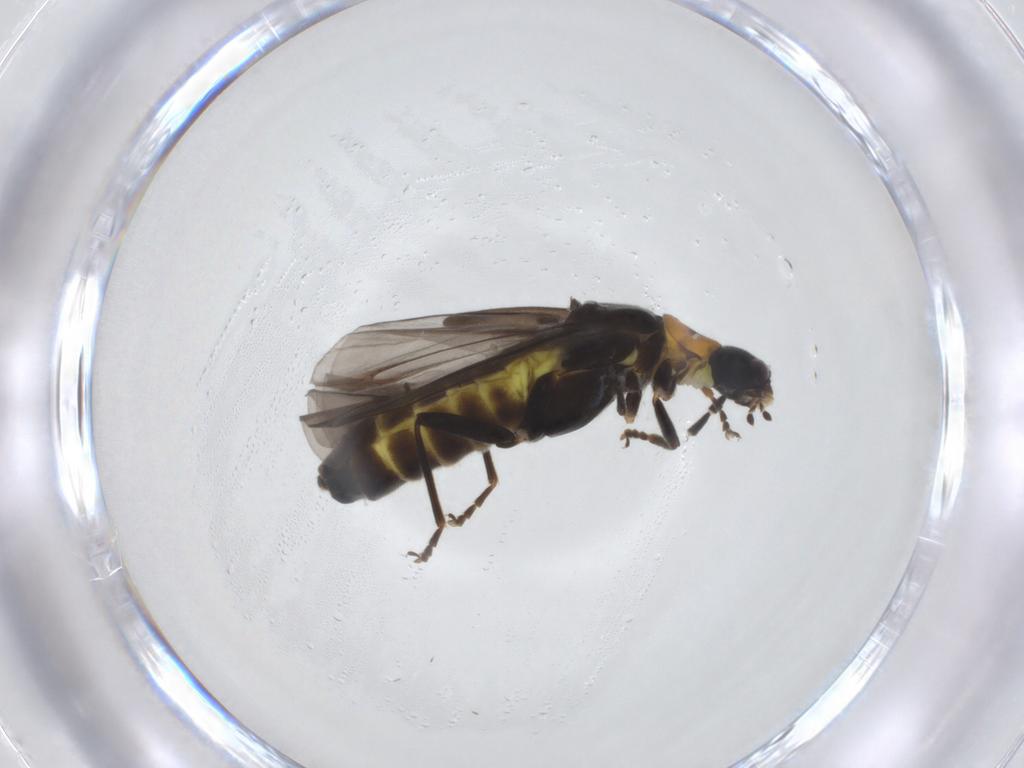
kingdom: Animalia
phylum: Arthropoda
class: Insecta
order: Coleoptera
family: Cantharidae
